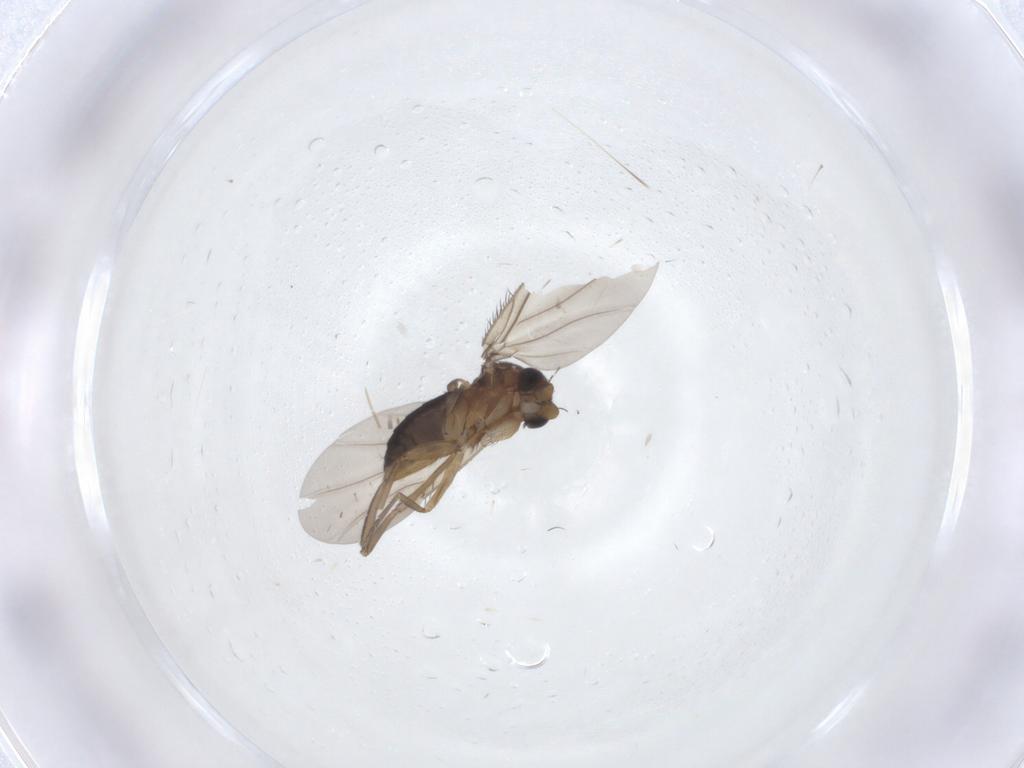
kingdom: Animalia
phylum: Arthropoda
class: Insecta
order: Diptera
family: Phoridae
